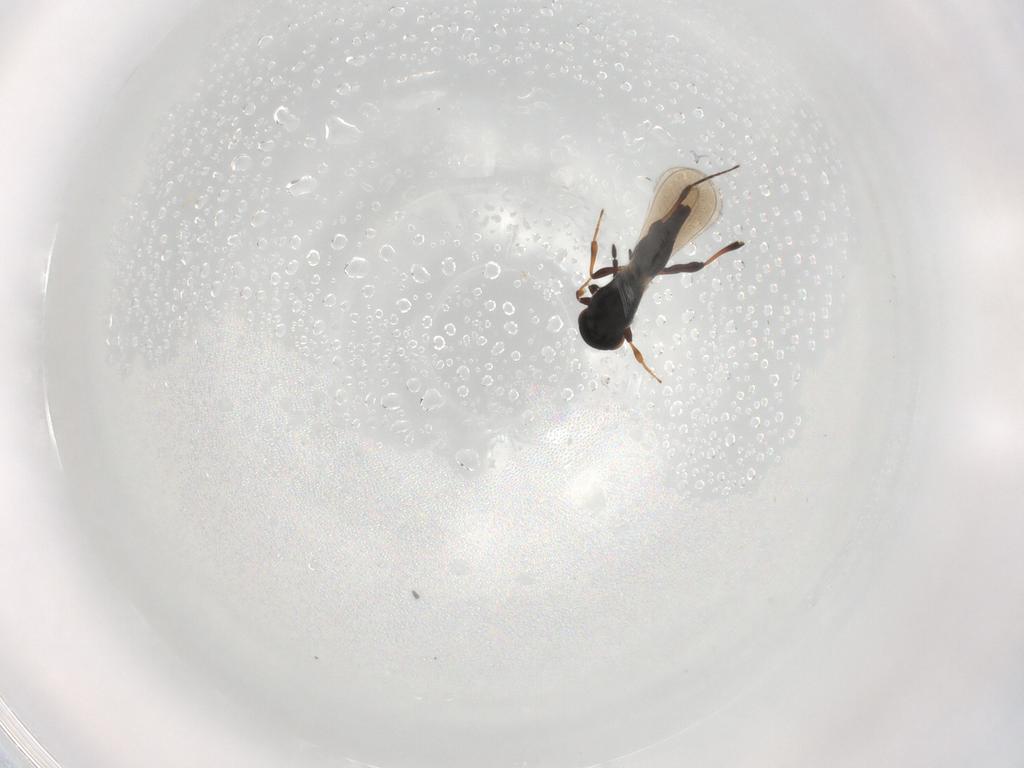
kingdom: Animalia
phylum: Arthropoda
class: Insecta
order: Hymenoptera
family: Platygastridae
